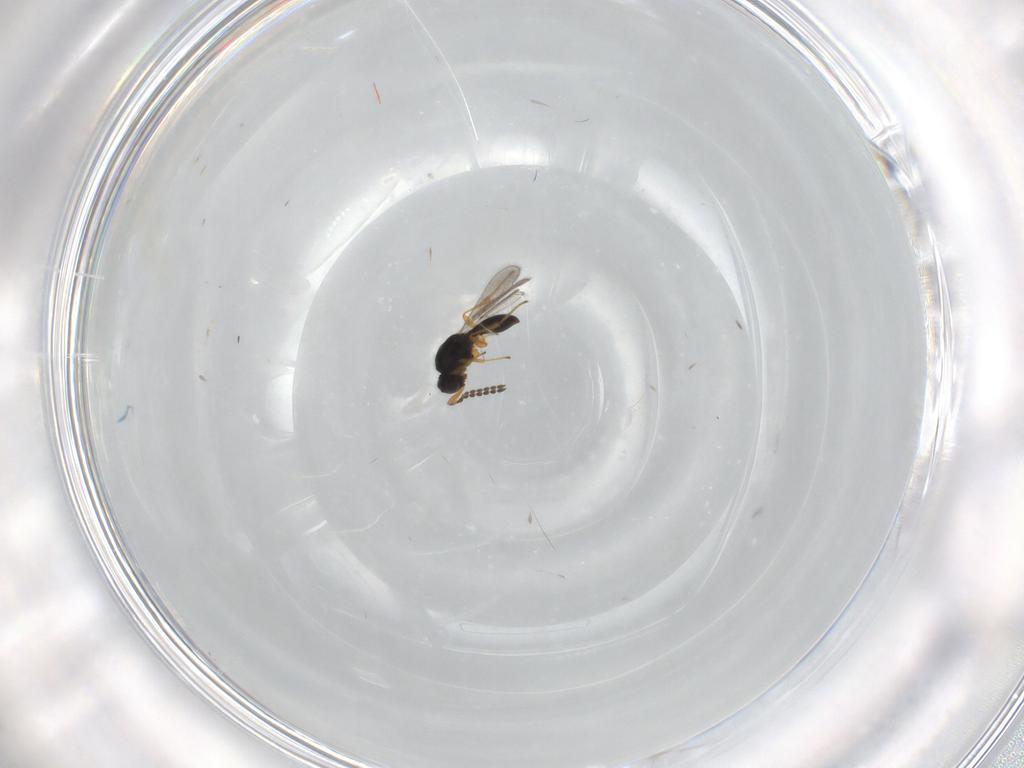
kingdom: Animalia
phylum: Arthropoda
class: Insecta
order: Hymenoptera
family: Platygastridae
